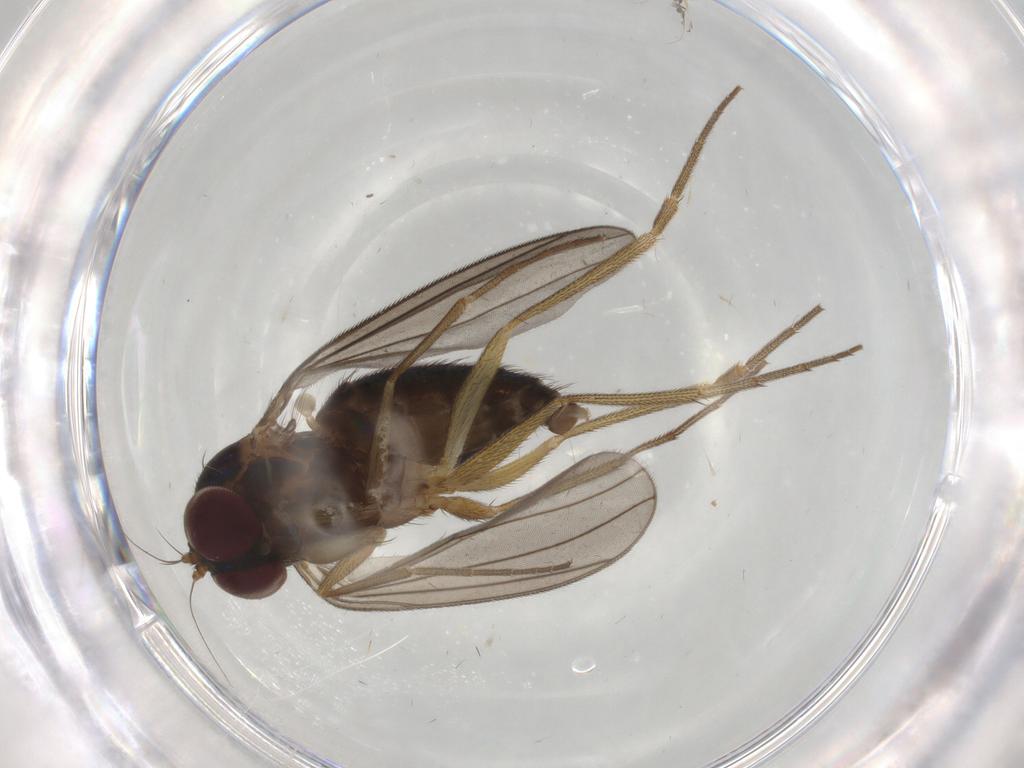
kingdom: Animalia
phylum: Arthropoda
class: Insecta
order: Diptera
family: Dolichopodidae
